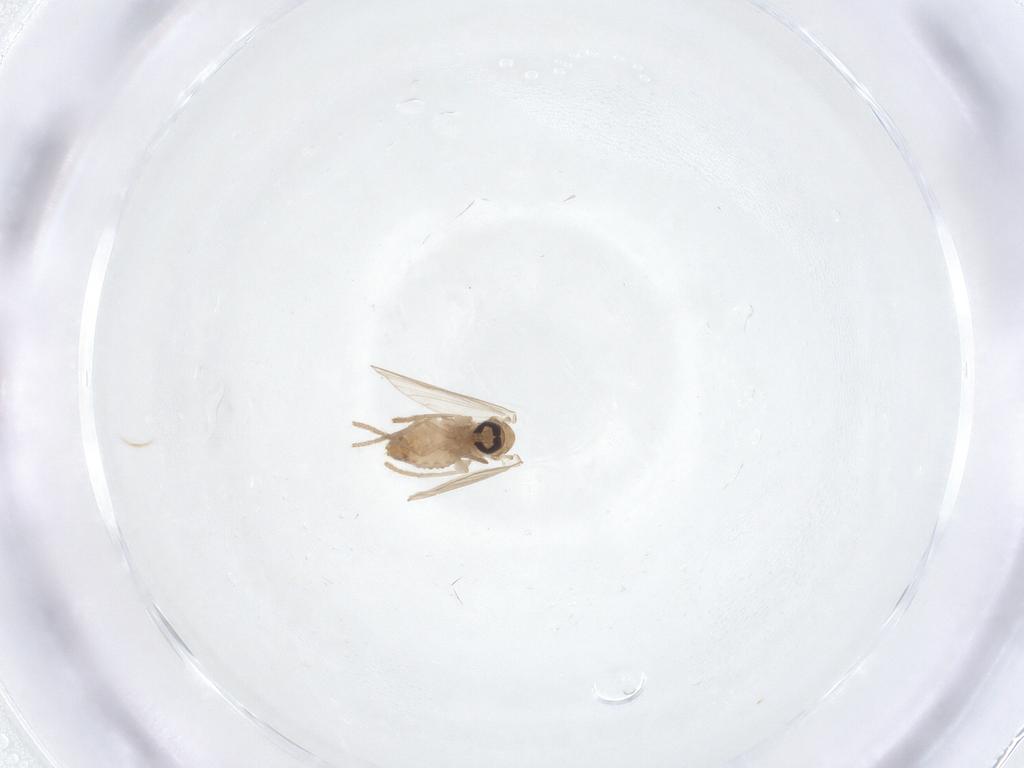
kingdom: Animalia
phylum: Arthropoda
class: Insecta
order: Diptera
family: Psychodidae
